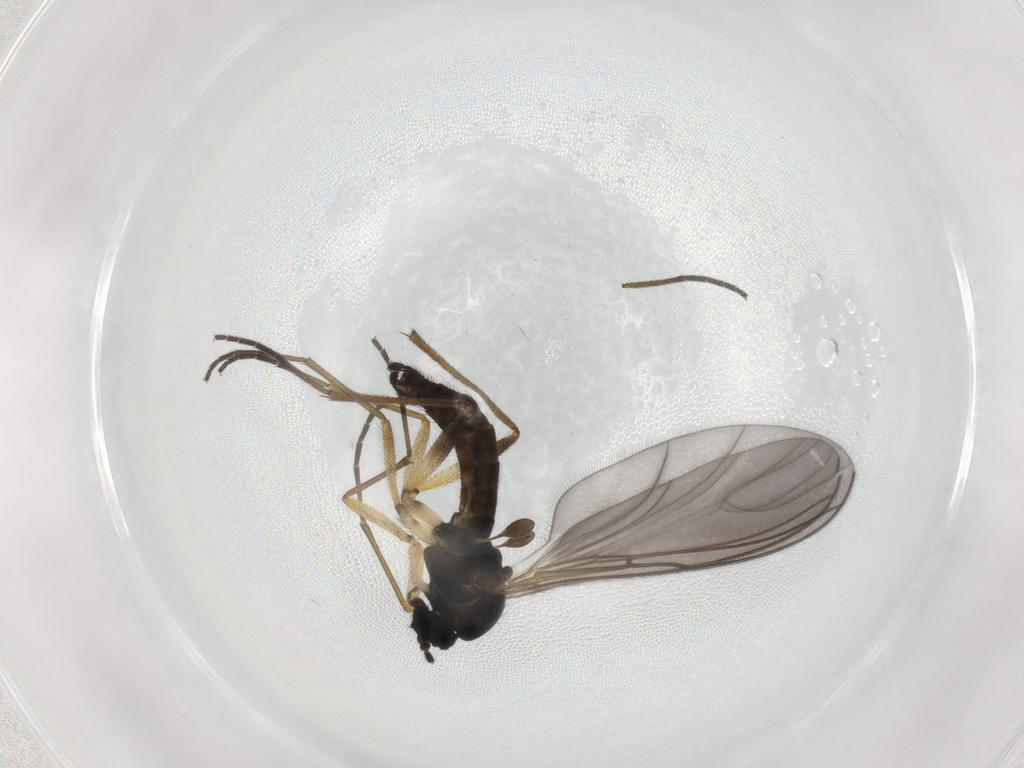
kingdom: Animalia
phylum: Arthropoda
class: Insecta
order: Diptera
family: Sciaridae
